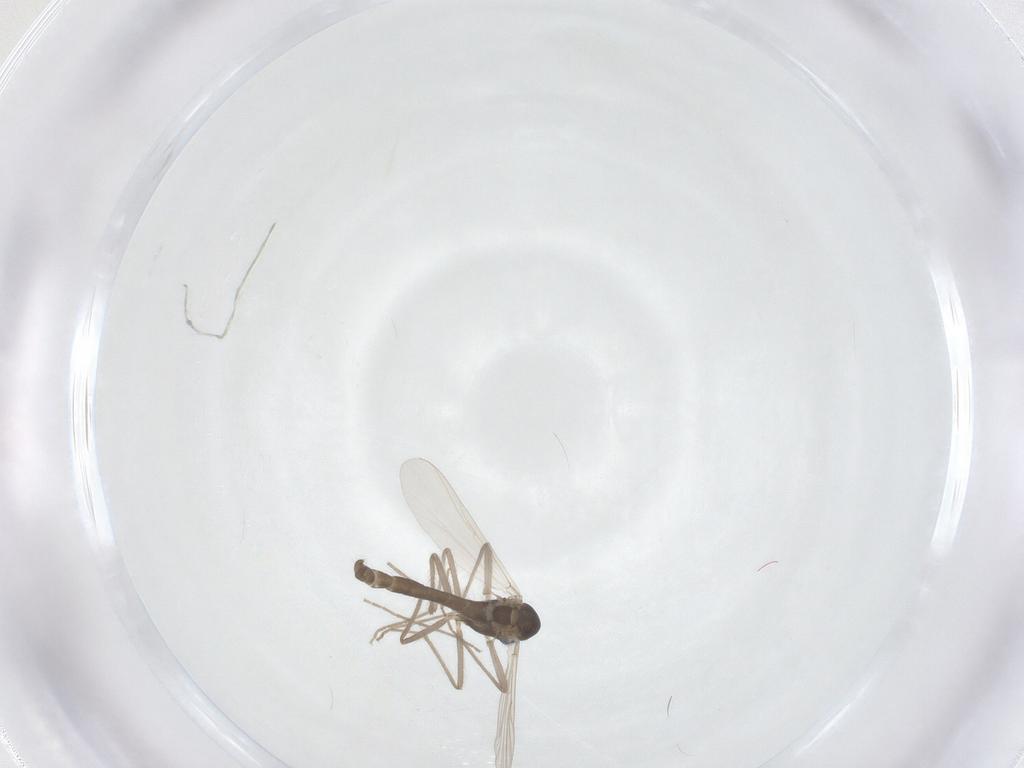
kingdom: Animalia
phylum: Arthropoda
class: Insecta
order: Diptera
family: Chironomidae
